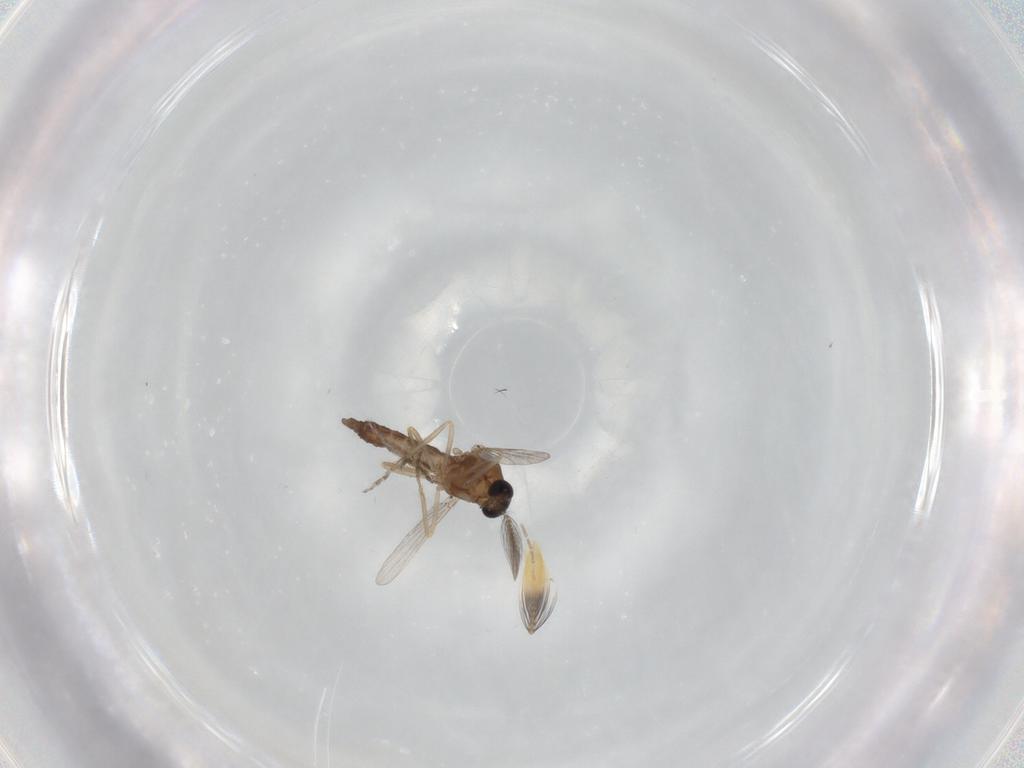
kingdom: Animalia
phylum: Arthropoda
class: Insecta
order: Diptera
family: Ceratopogonidae
